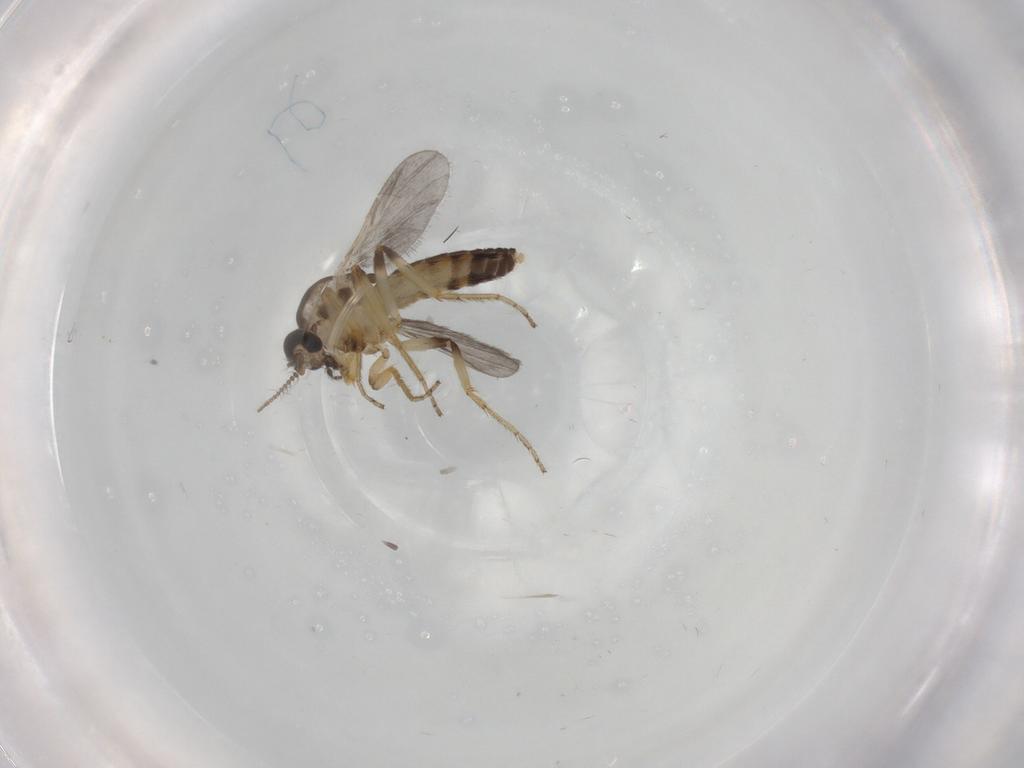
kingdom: Animalia
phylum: Arthropoda
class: Insecta
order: Diptera
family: Ceratopogonidae
